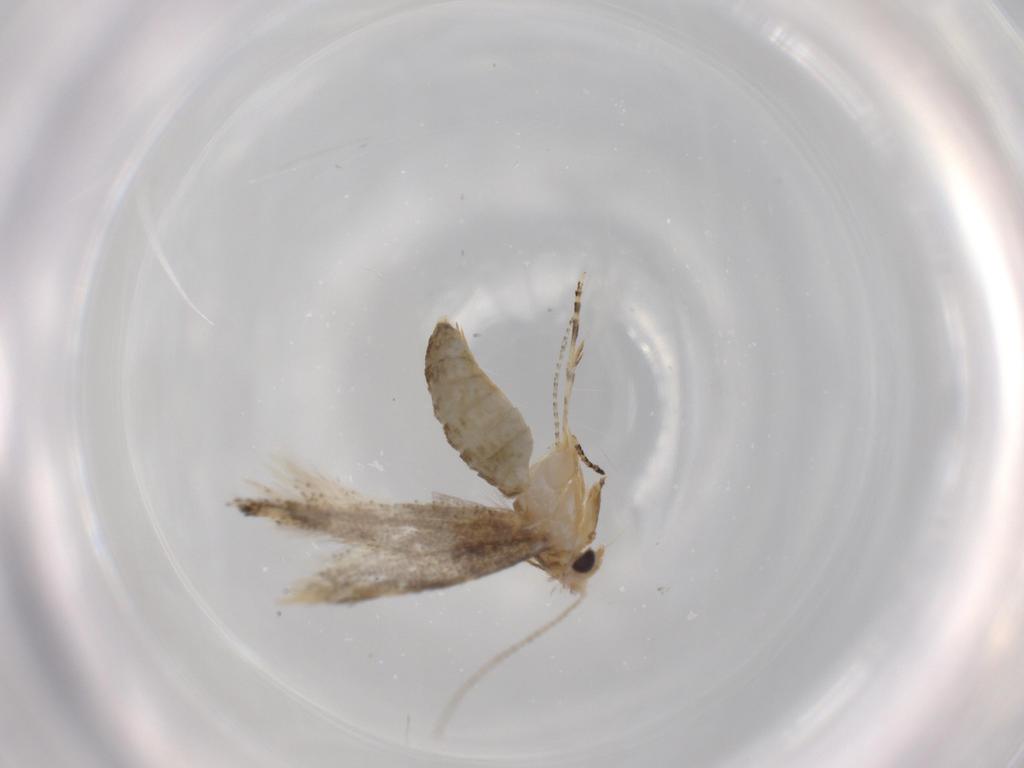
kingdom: Animalia
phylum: Arthropoda
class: Insecta
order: Lepidoptera
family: Bucculatricidae
